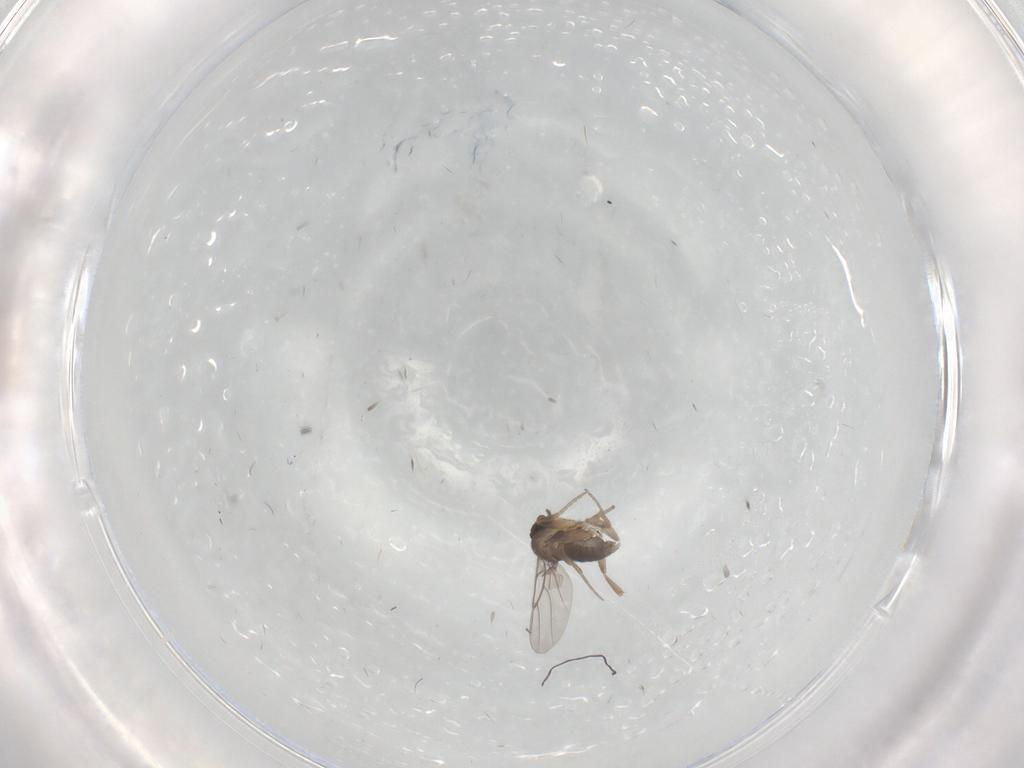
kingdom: Animalia
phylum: Arthropoda
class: Insecta
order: Diptera
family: Phoridae
